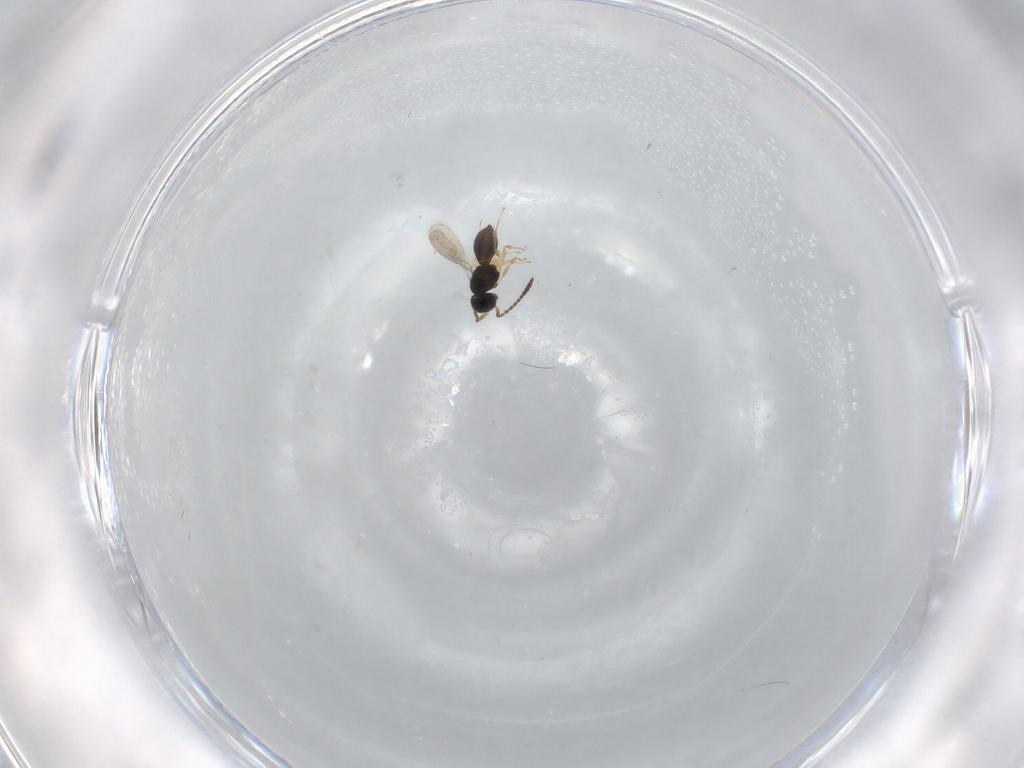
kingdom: Animalia
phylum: Arthropoda
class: Insecta
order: Hymenoptera
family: Scelionidae
